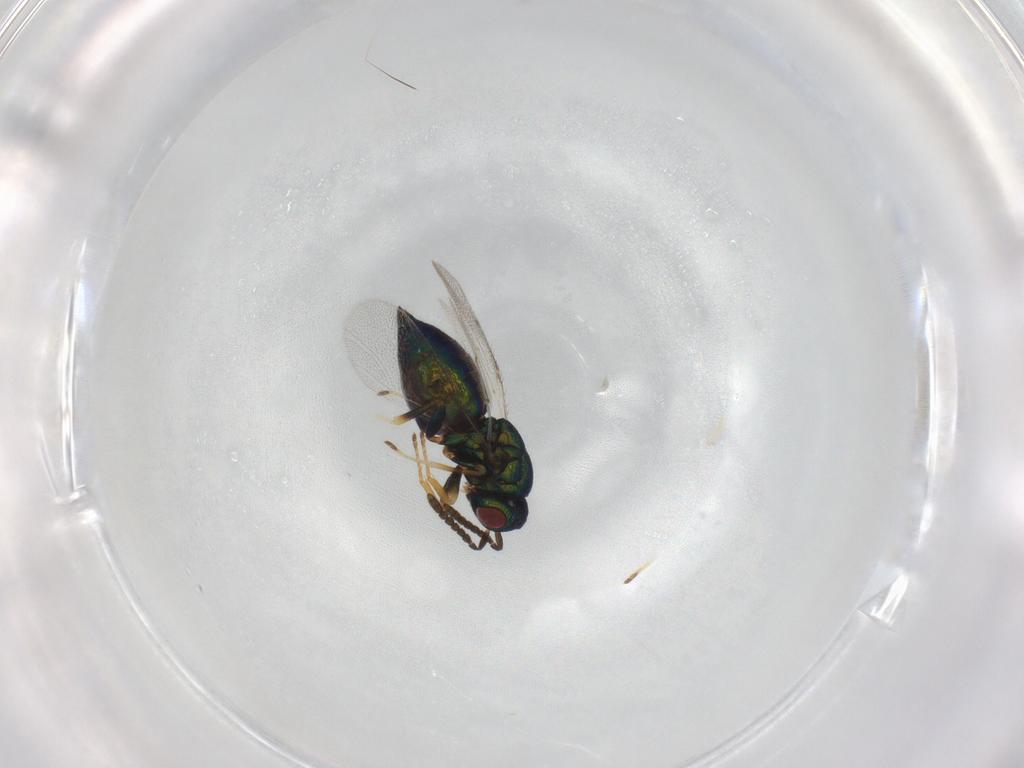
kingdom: Animalia
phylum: Arthropoda
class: Insecta
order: Hymenoptera
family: Pteromalidae
